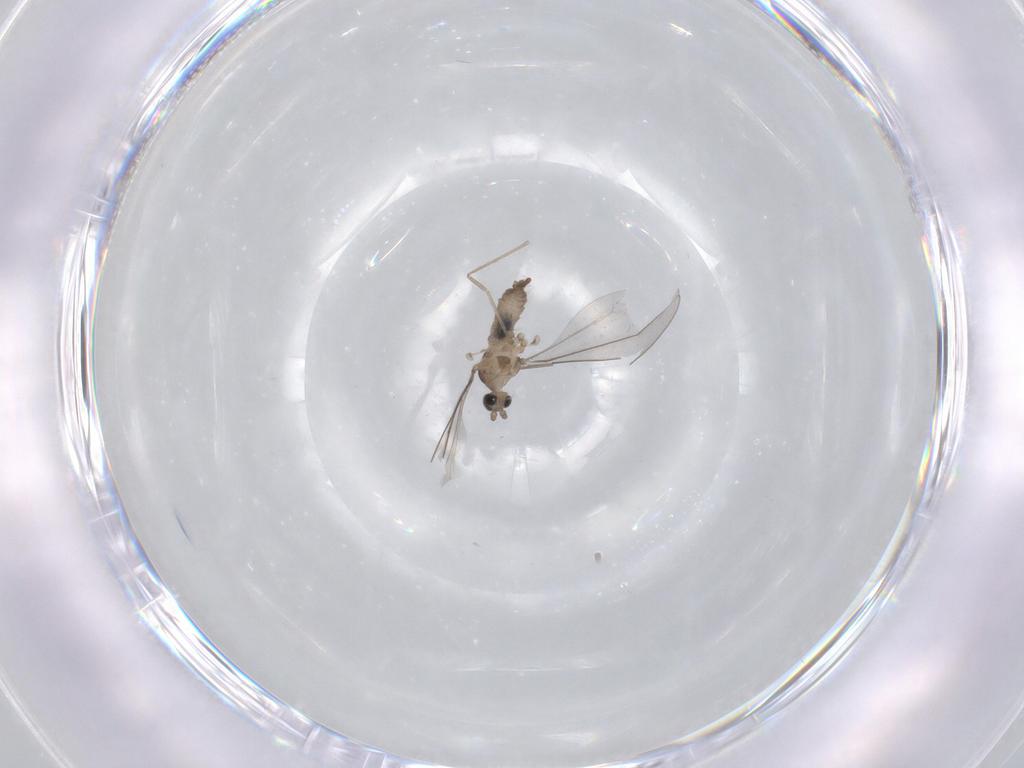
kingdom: Animalia
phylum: Arthropoda
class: Insecta
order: Diptera
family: Cecidomyiidae
